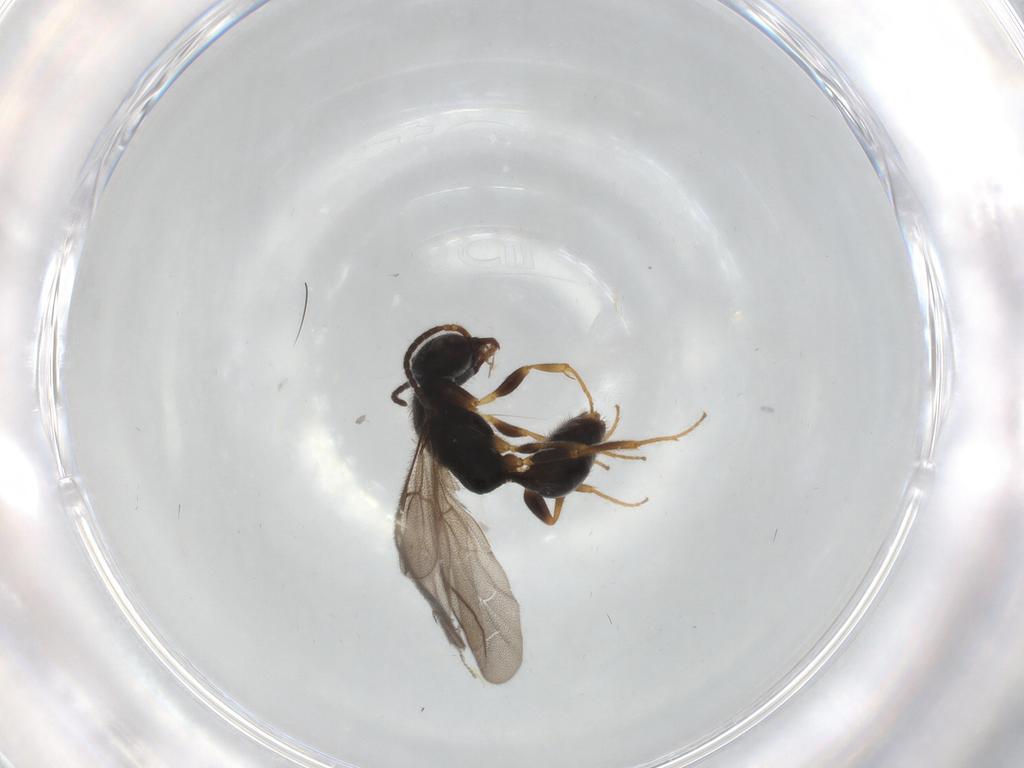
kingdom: Animalia
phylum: Arthropoda
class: Insecta
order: Hymenoptera
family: Bethylidae
